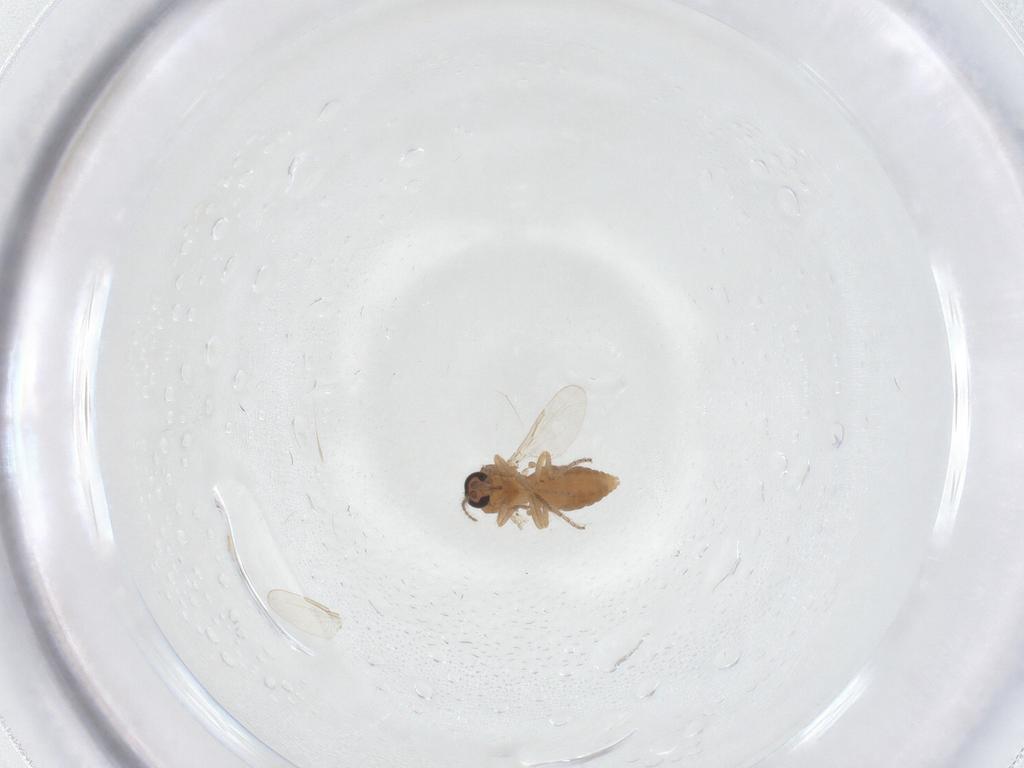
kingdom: Animalia
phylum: Arthropoda
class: Insecta
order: Diptera
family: Ceratopogonidae
